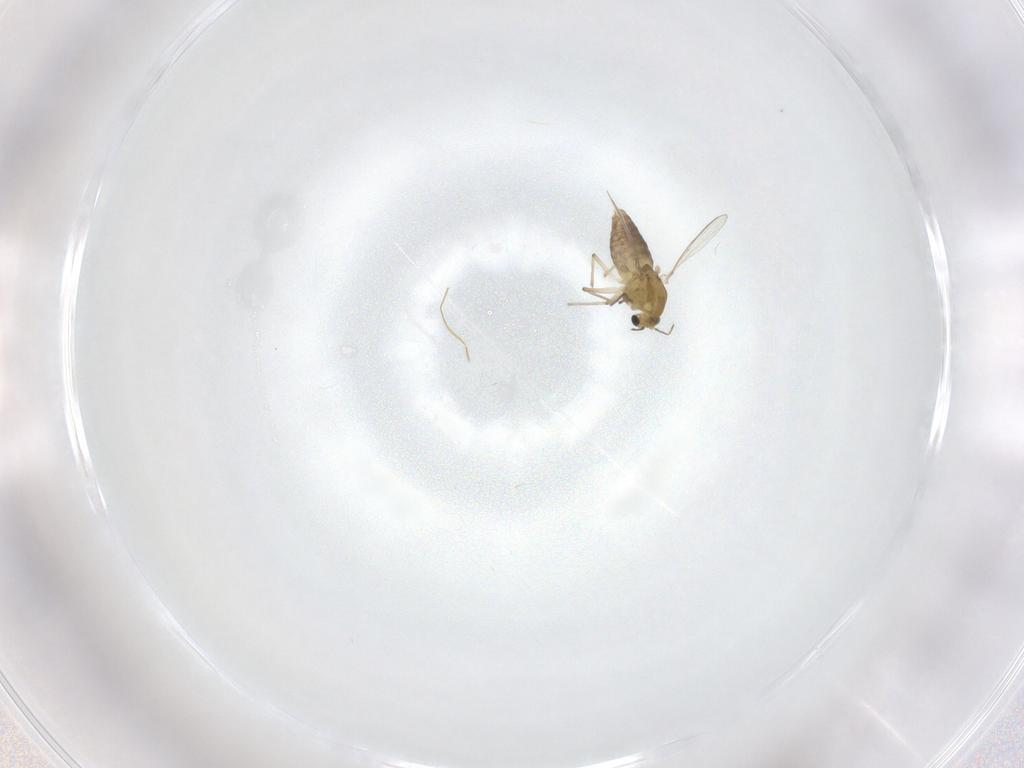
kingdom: Animalia
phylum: Arthropoda
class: Insecta
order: Diptera
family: Chironomidae
